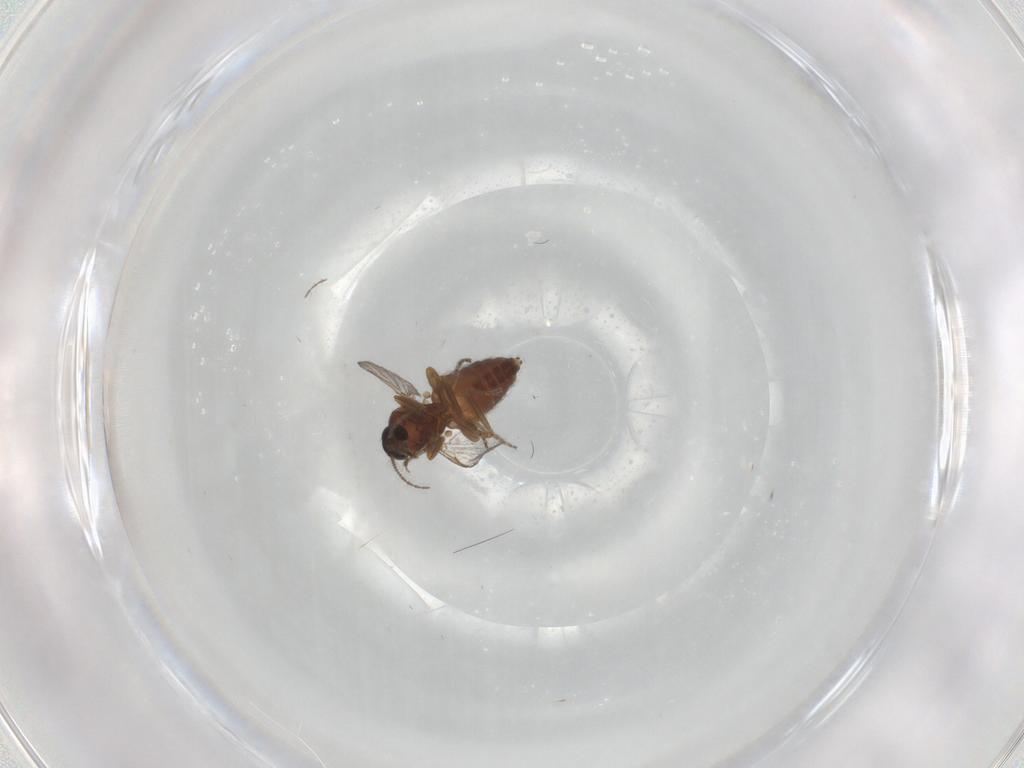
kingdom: Animalia
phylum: Arthropoda
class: Insecta
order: Diptera
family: Ceratopogonidae
